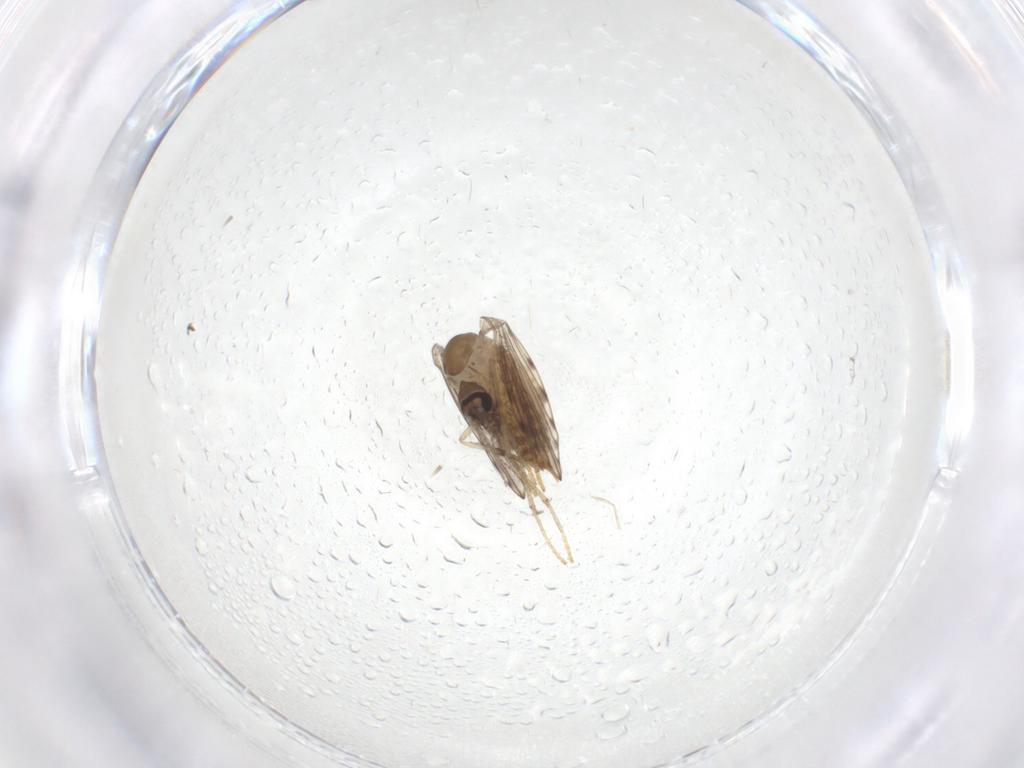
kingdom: Animalia
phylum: Arthropoda
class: Insecta
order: Diptera
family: Psychodidae
